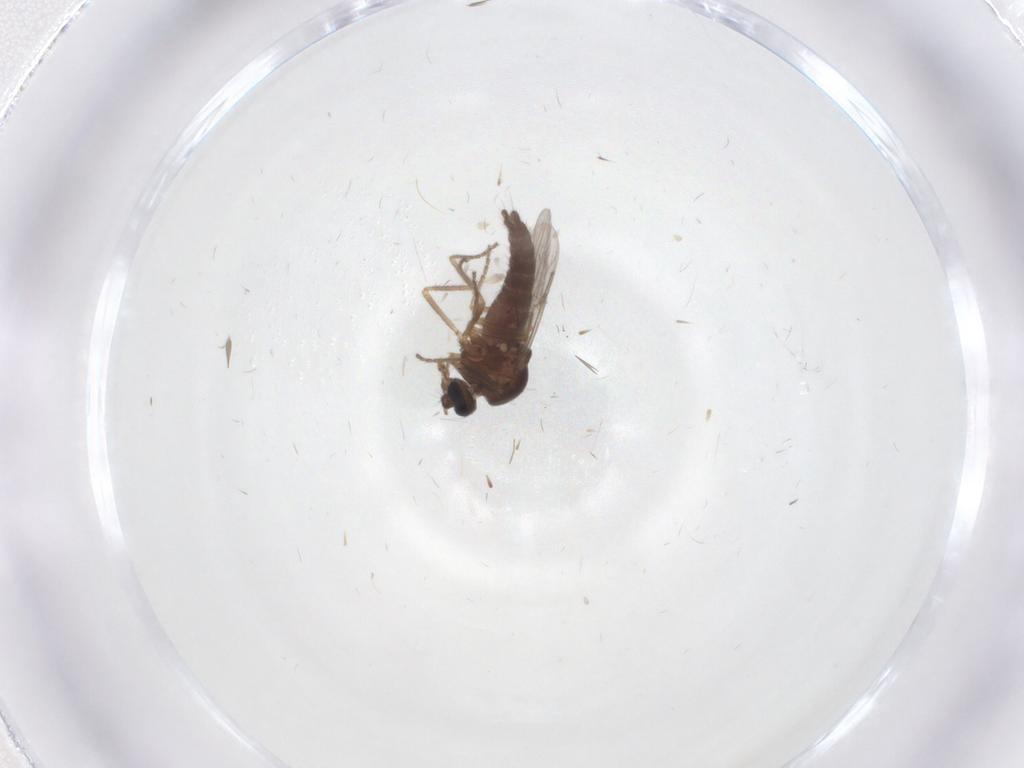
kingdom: Animalia
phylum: Arthropoda
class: Insecta
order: Diptera
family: Ceratopogonidae
